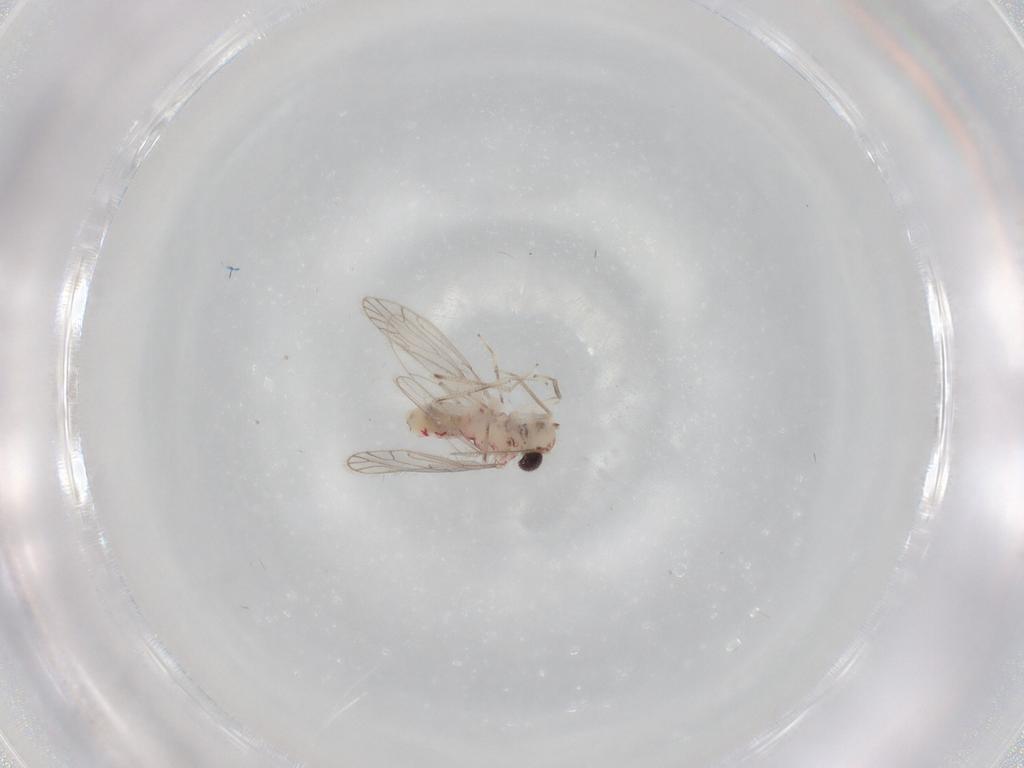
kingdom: Animalia
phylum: Arthropoda
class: Insecta
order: Psocodea
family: Caeciliusidae
